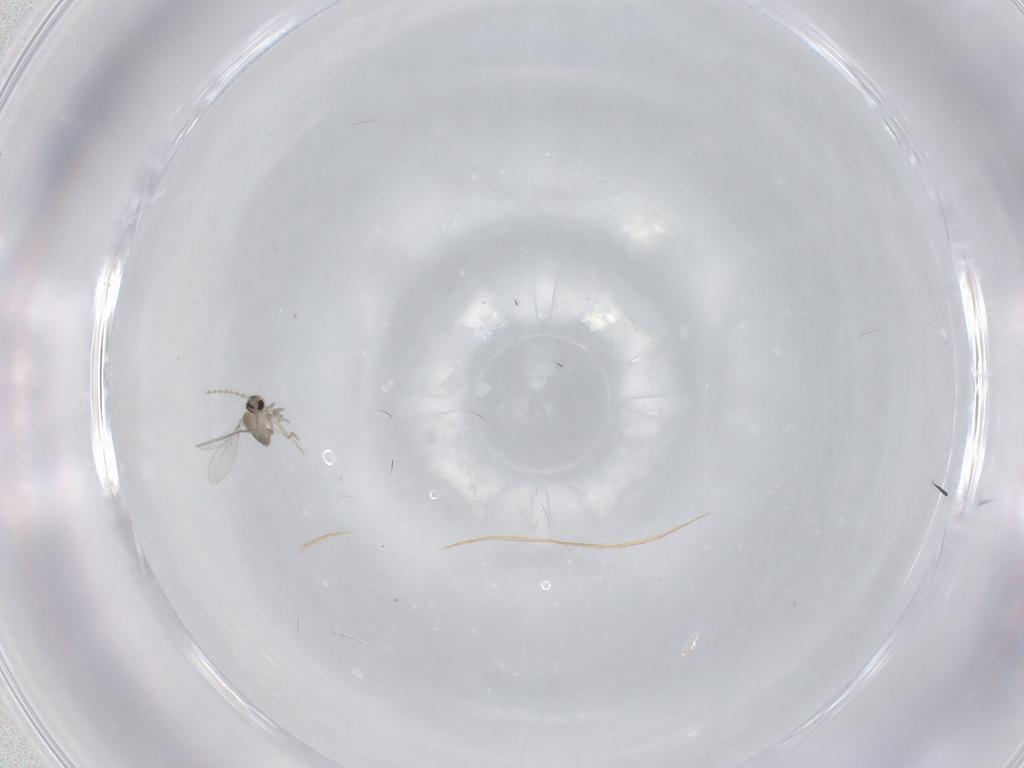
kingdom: Animalia
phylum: Arthropoda
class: Insecta
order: Diptera
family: Cecidomyiidae
